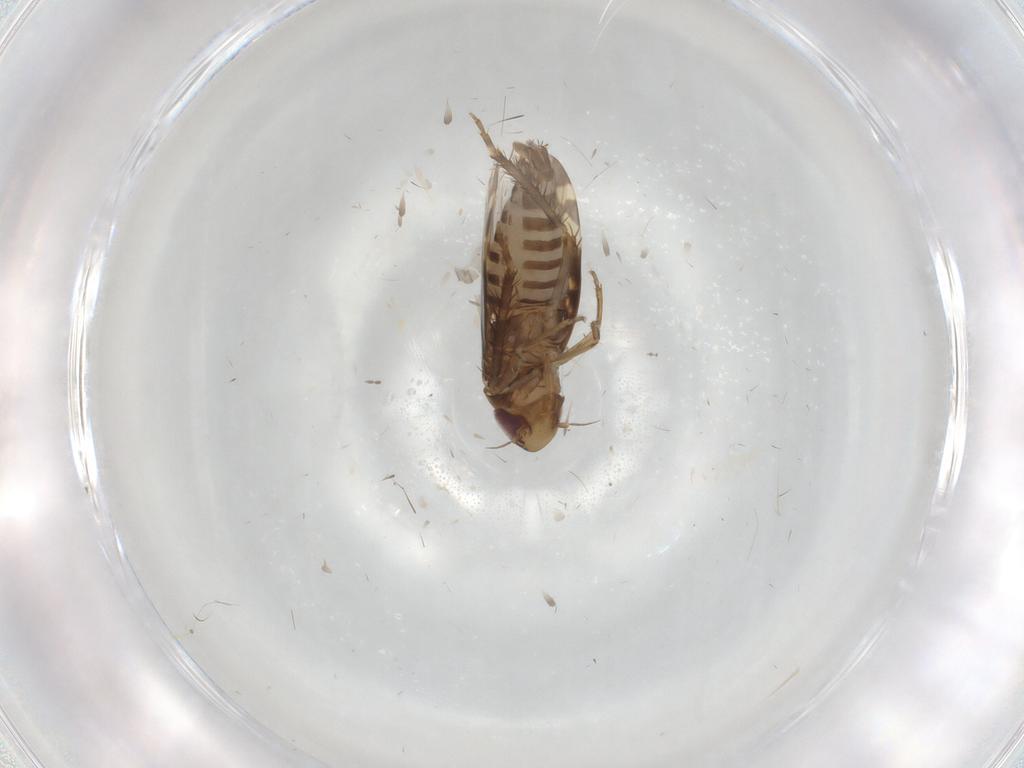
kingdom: Animalia
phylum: Arthropoda
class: Insecta
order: Hemiptera
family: Cicadellidae
